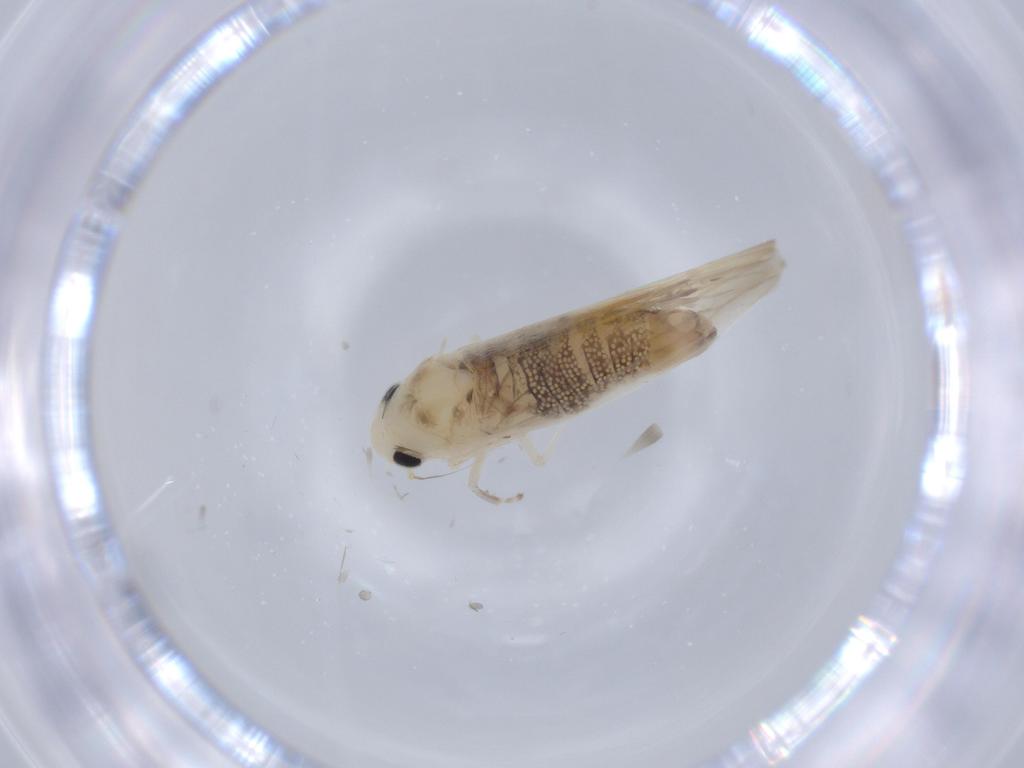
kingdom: Animalia
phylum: Arthropoda
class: Insecta
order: Hemiptera
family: Cicadellidae
